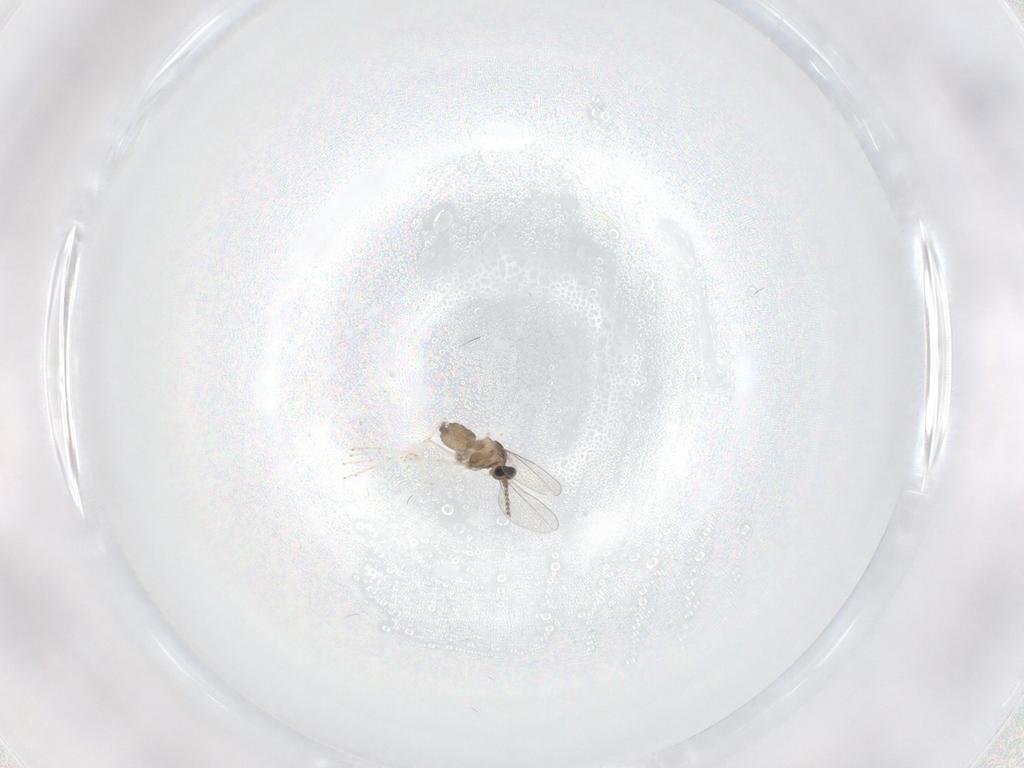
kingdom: Animalia
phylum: Arthropoda
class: Insecta
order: Diptera
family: Cecidomyiidae
